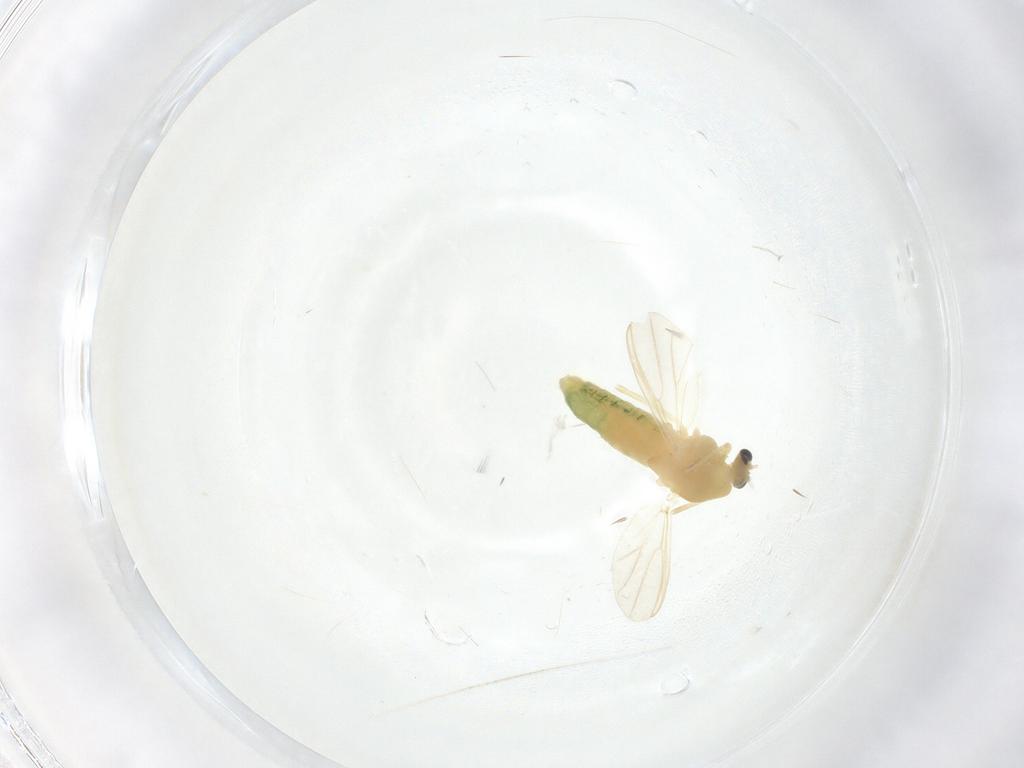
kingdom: Animalia
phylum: Arthropoda
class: Insecta
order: Diptera
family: Chironomidae
